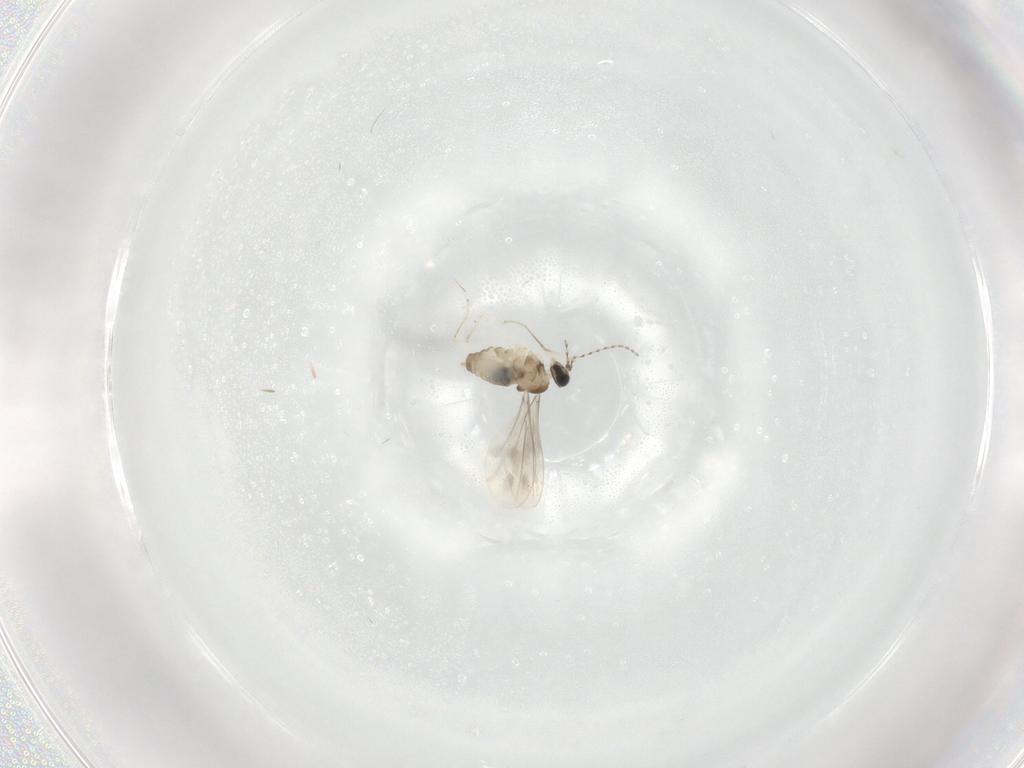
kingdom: Animalia
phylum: Arthropoda
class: Insecta
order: Diptera
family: Cecidomyiidae
